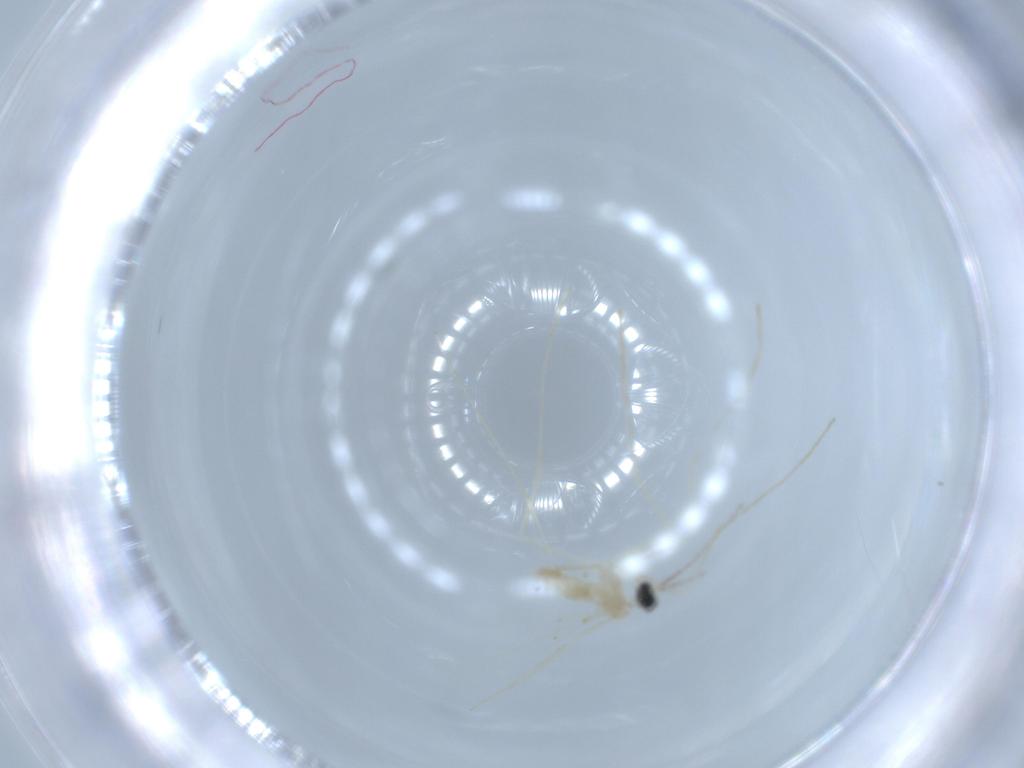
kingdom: Animalia
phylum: Arthropoda
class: Insecta
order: Diptera
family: Cecidomyiidae
